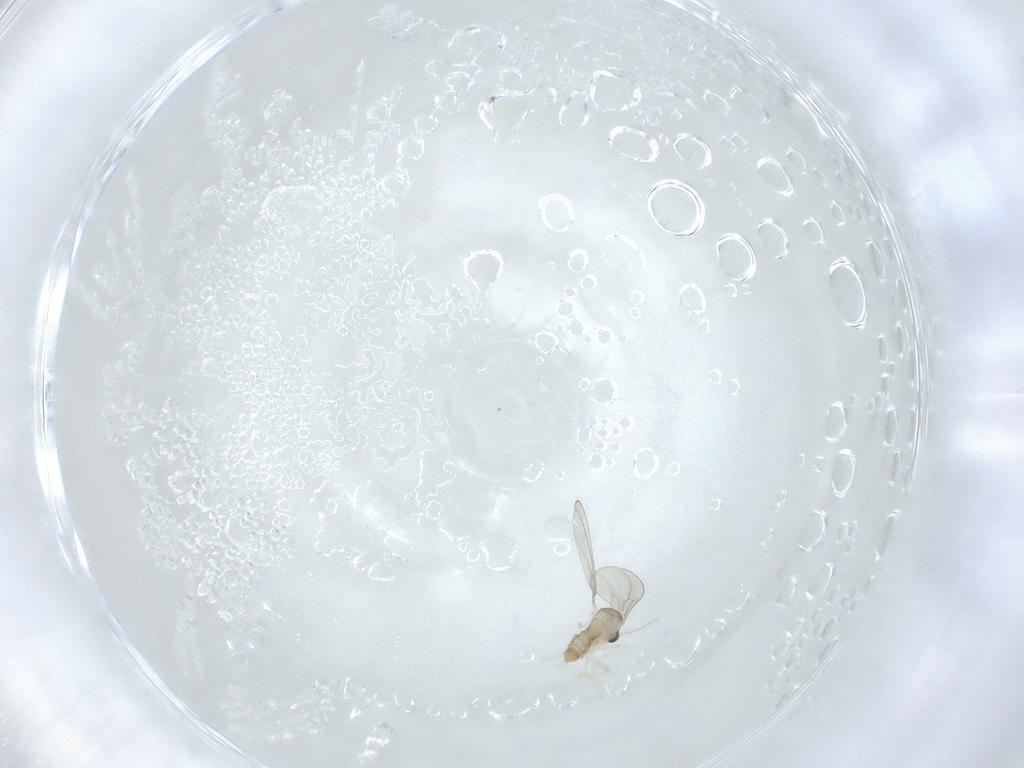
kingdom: Animalia
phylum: Arthropoda
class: Insecta
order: Diptera
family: Cecidomyiidae
